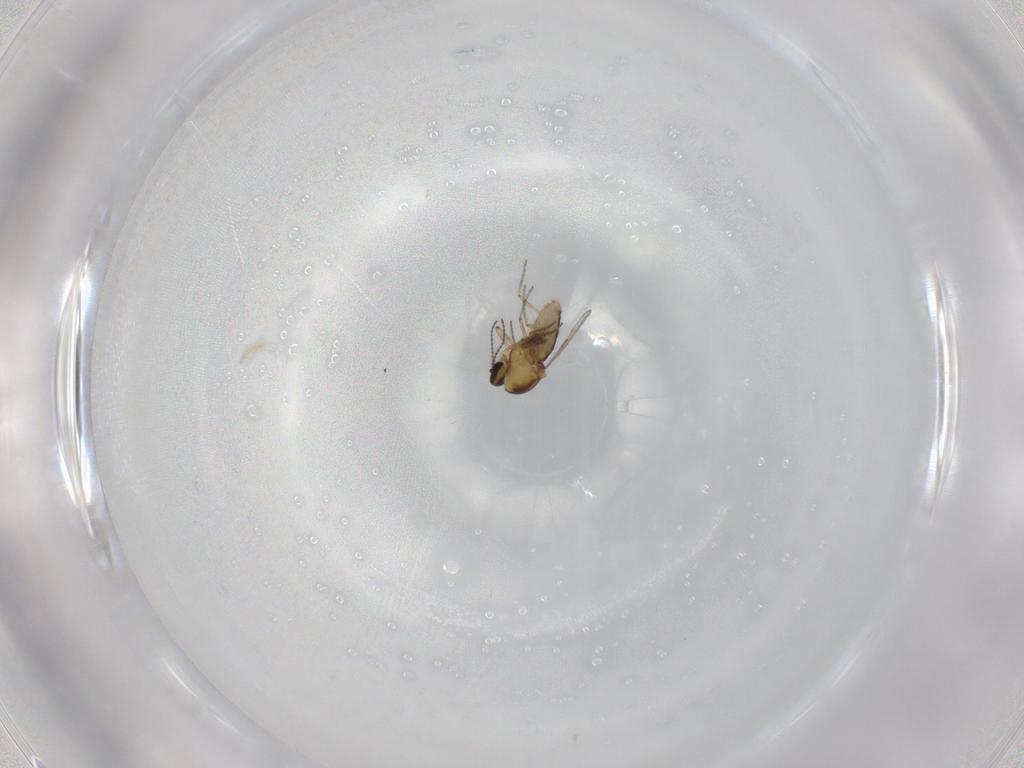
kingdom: Animalia
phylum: Arthropoda
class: Insecta
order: Diptera
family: Ceratopogonidae
